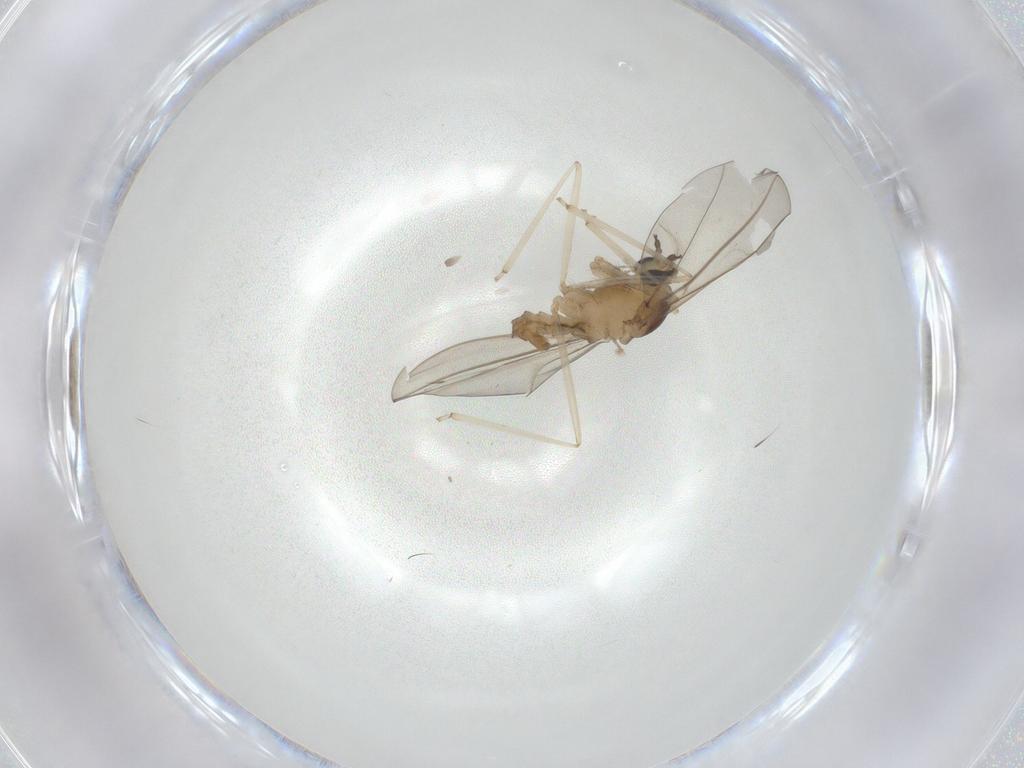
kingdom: Animalia
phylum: Arthropoda
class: Insecta
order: Diptera
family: Cecidomyiidae
